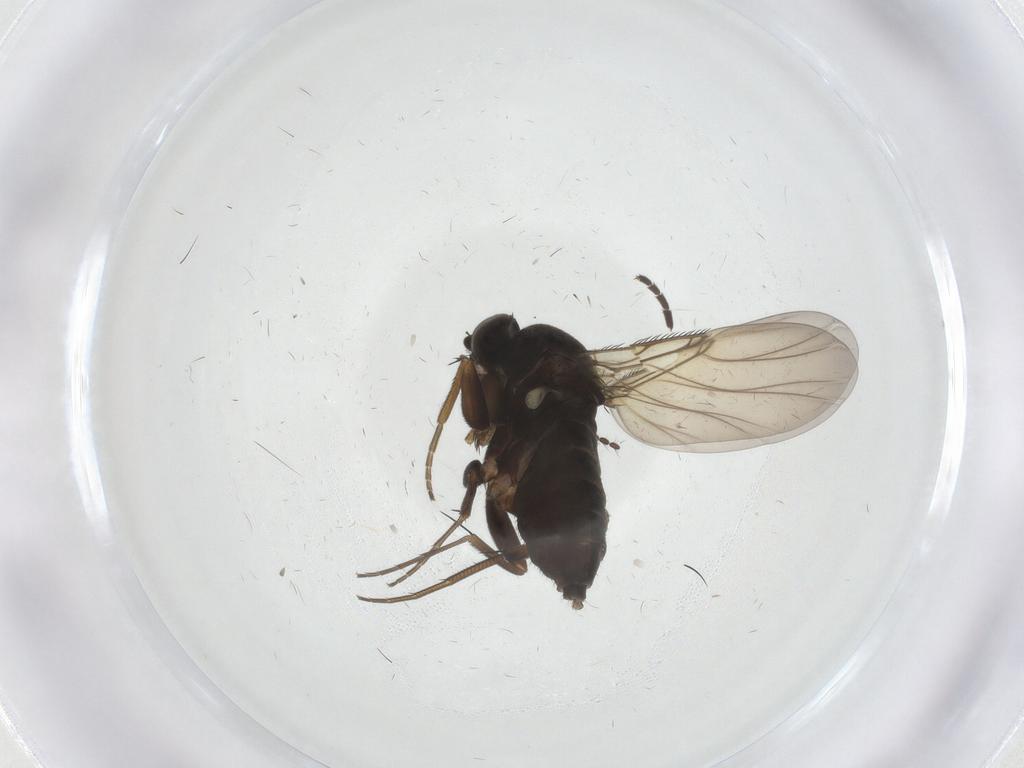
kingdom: Animalia
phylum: Arthropoda
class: Insecta
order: Diptera
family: Phoridae
